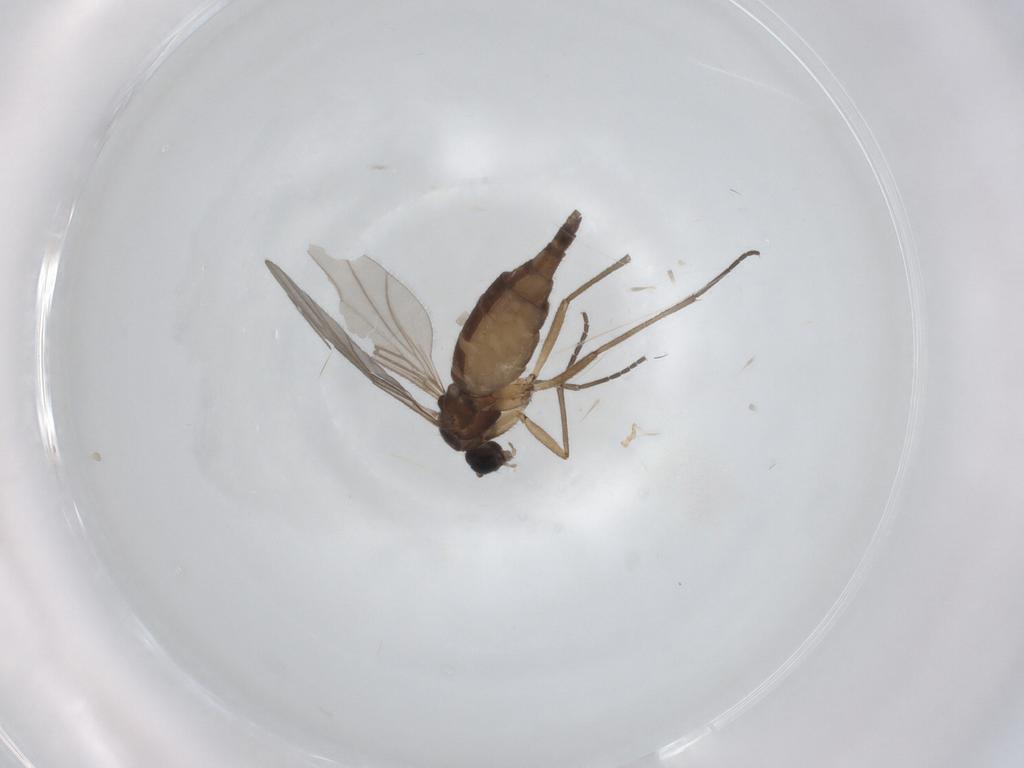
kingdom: Animalia
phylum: Arthropoda
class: Insecta
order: Diptera
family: Sciaridae
